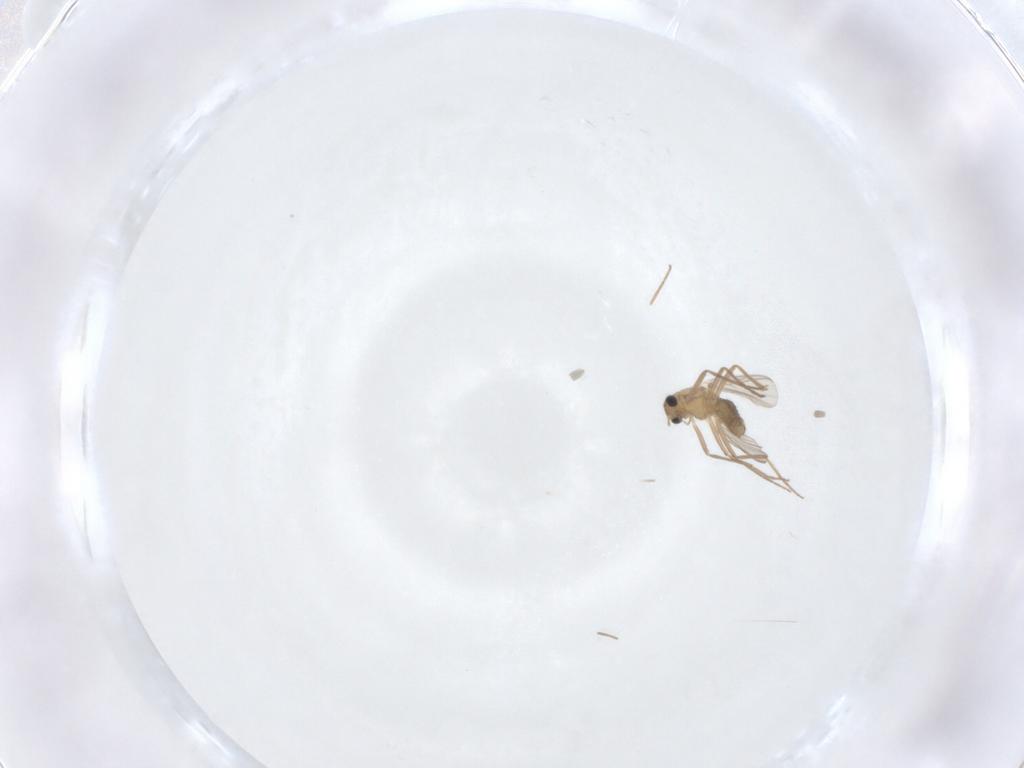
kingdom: Animalia
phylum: Arthropoda
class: Insecta
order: Diptera
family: Chironomidae
